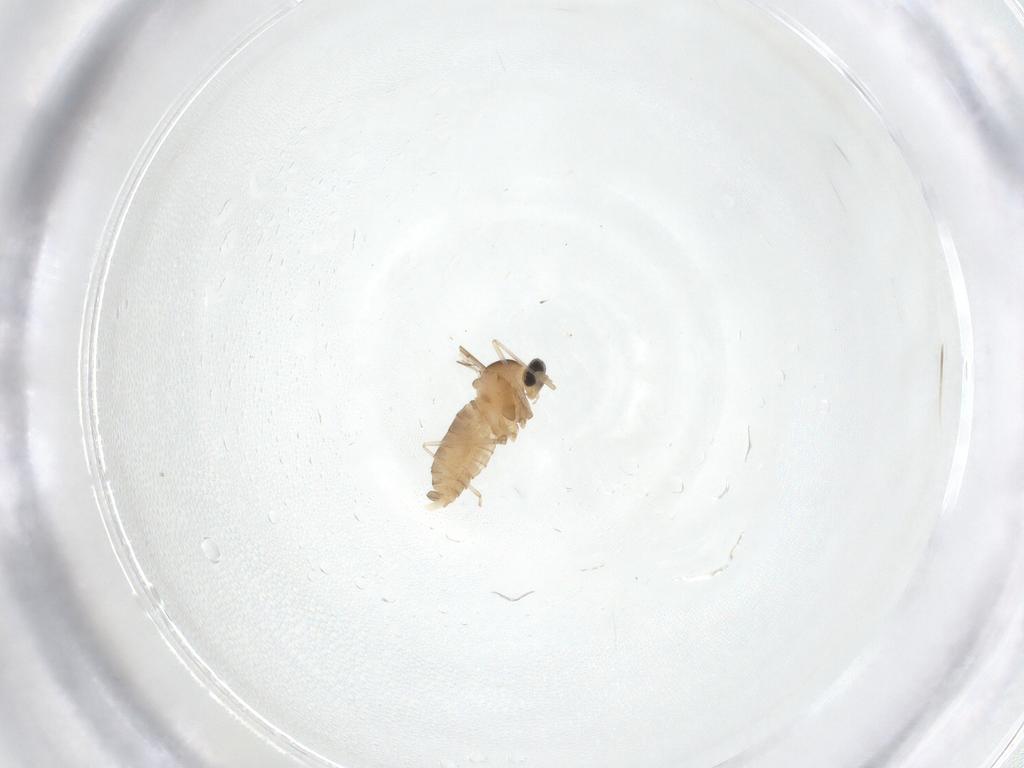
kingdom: Animalia
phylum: Arthropoda
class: Insecta
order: Diptera
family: Cecidomyiidae
